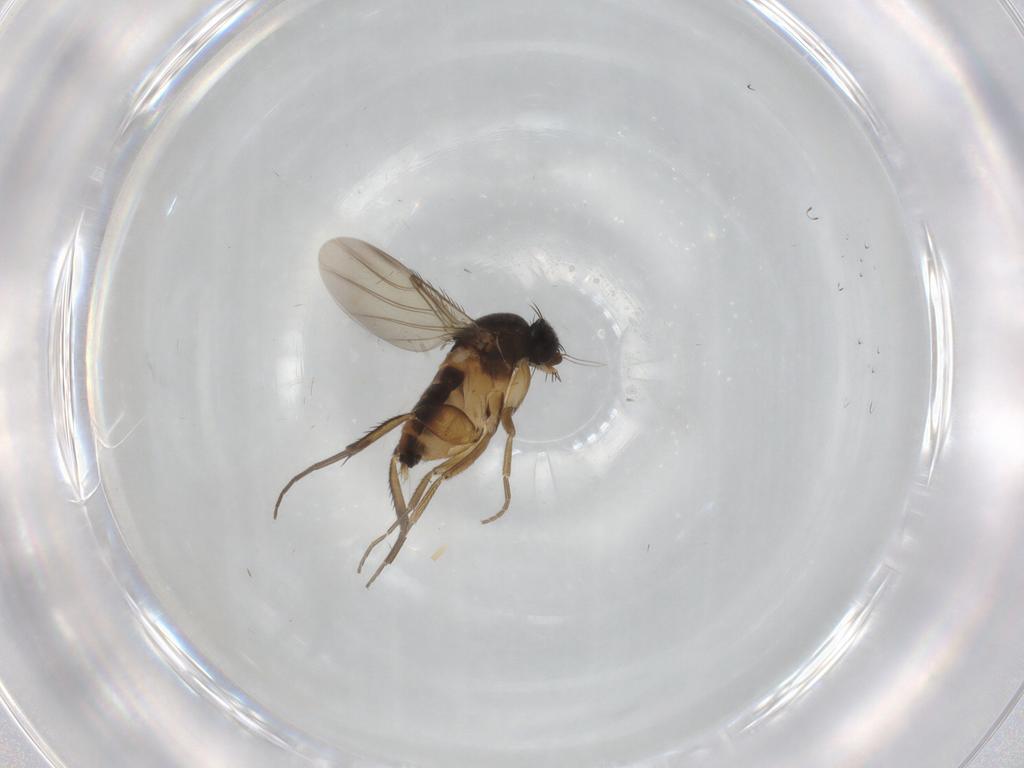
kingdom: Animalia
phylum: Arthropoda
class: Insecta
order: Diptera
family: Phoridae
